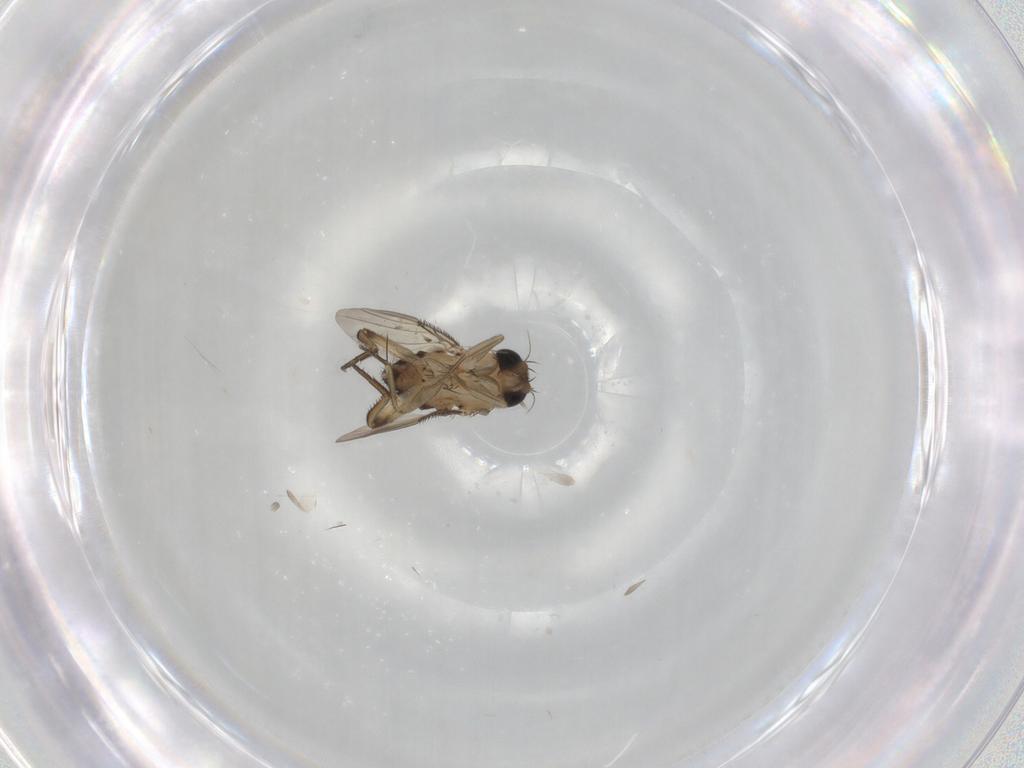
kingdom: Animalia
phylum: Arthropoda
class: Insecta
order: Diptera
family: Phoridae
